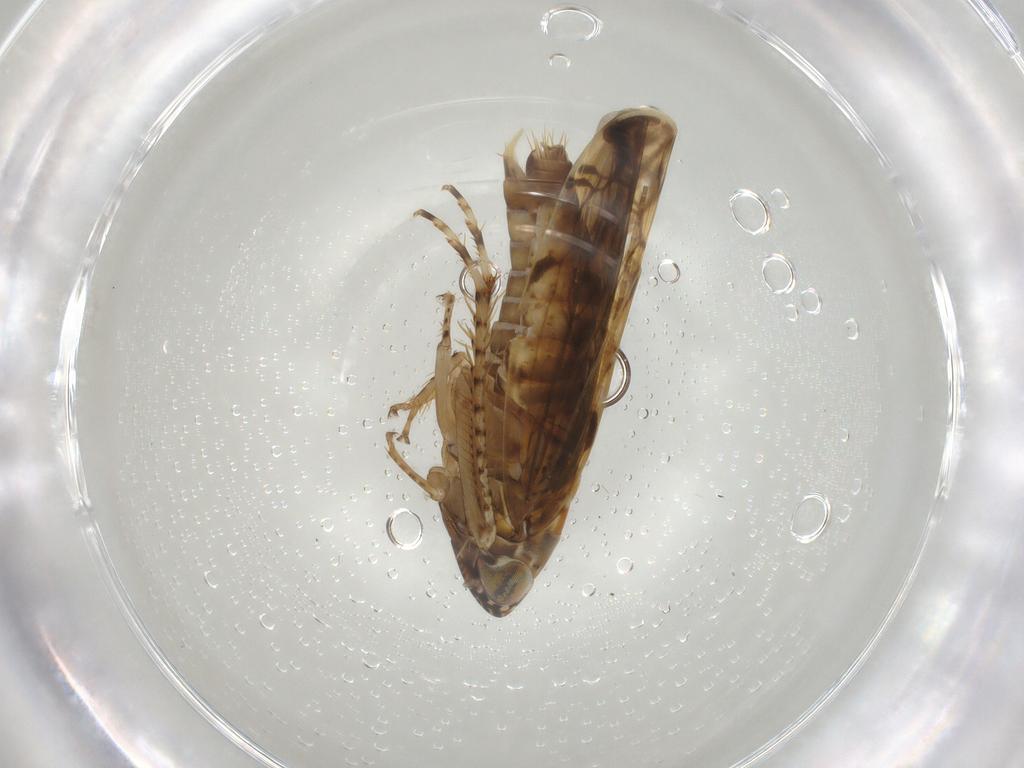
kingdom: Animalia
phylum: Arthropoda
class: Insecta
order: Hemiptera
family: Cicadellidae
